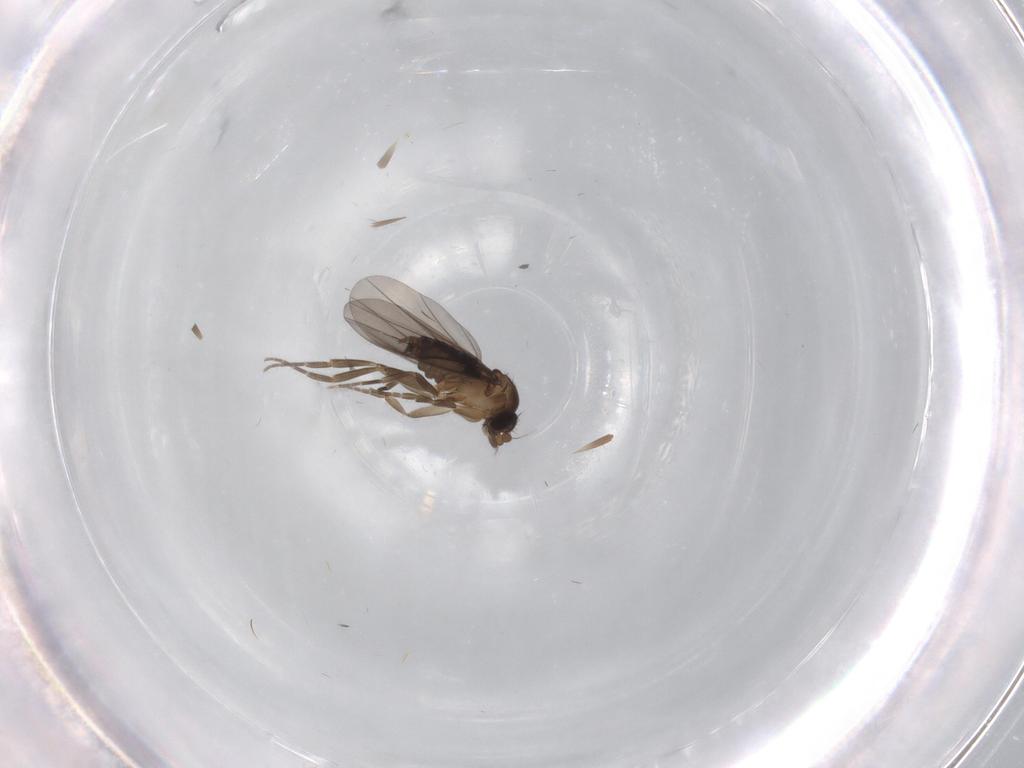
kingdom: Animalia
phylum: Arthropoda
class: Insecta
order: Diptera
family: Phoridae
